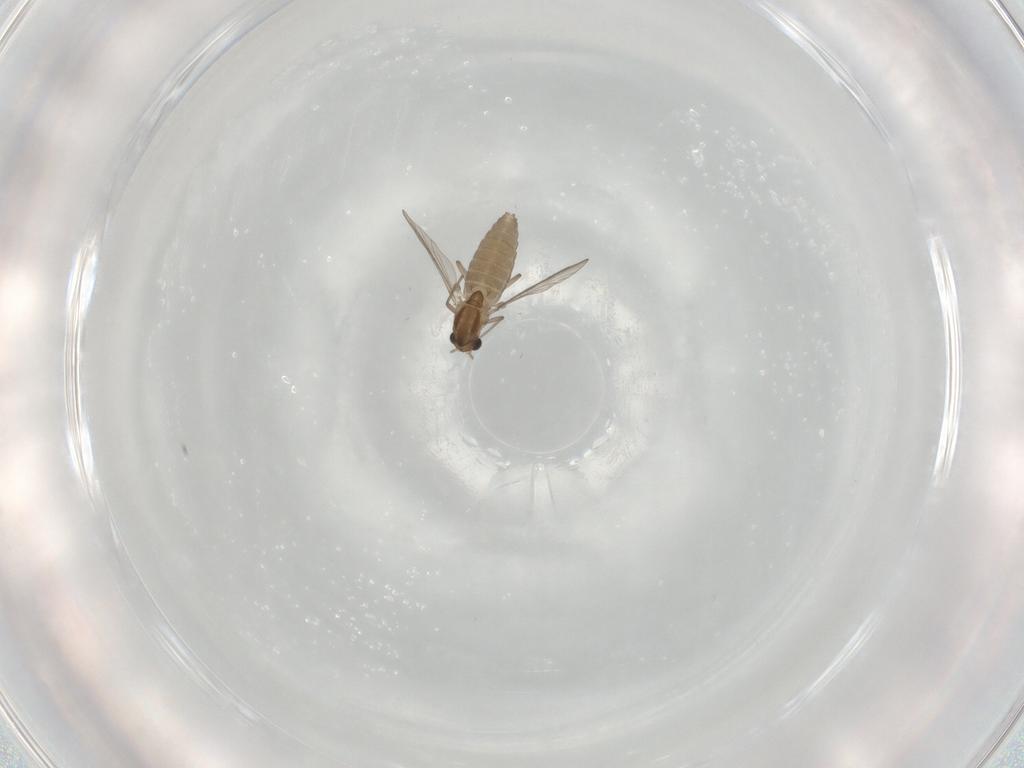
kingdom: Animalia
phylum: Arthropoda
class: Insecta
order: Diptera
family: Chironomidae
